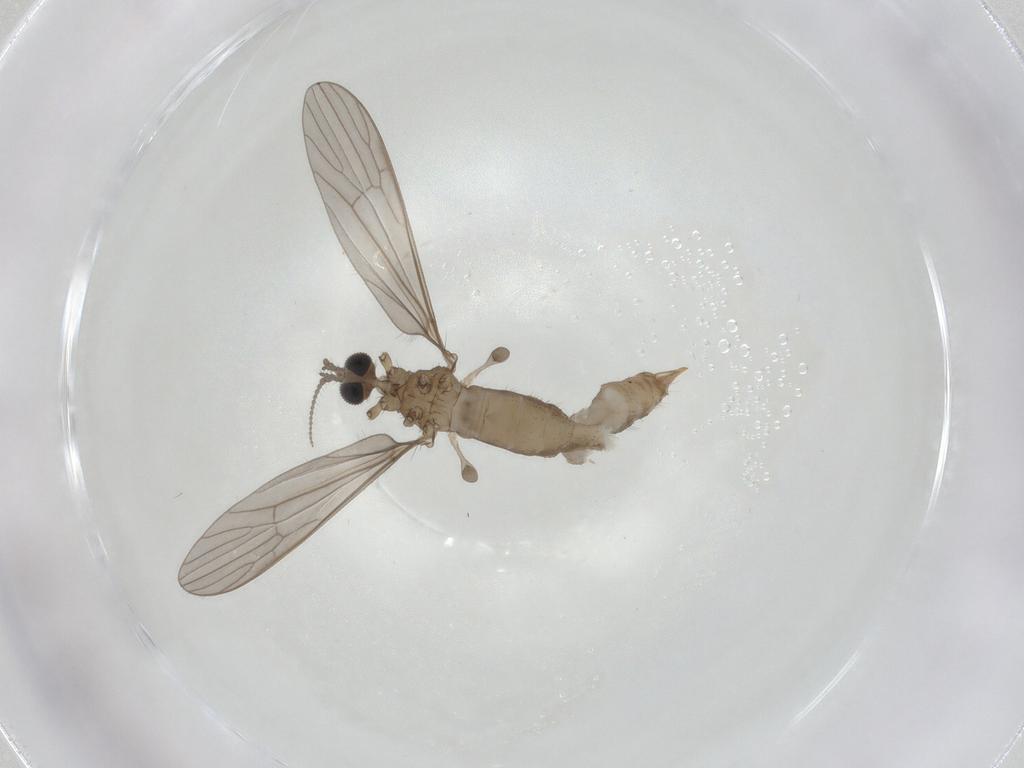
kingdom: Animalia
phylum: Arthropoda
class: Insecta
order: Diptera
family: Limoniidae
